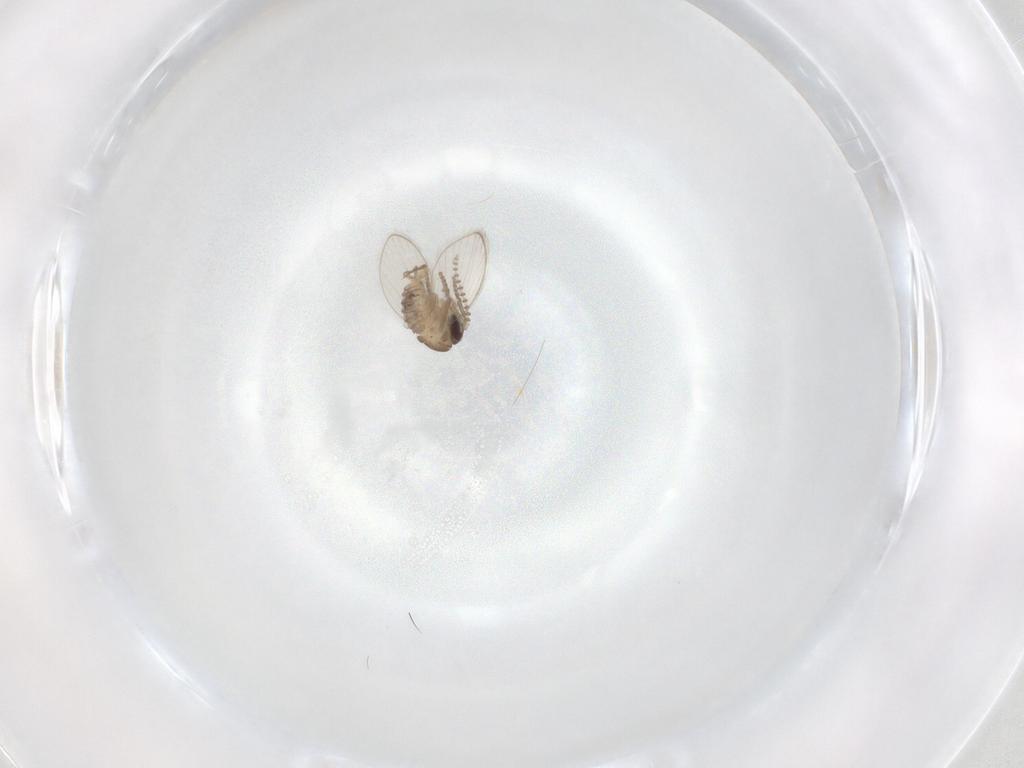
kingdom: Animalia
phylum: Arthropoda
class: Insecta
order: Diptera
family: Psychodidae
